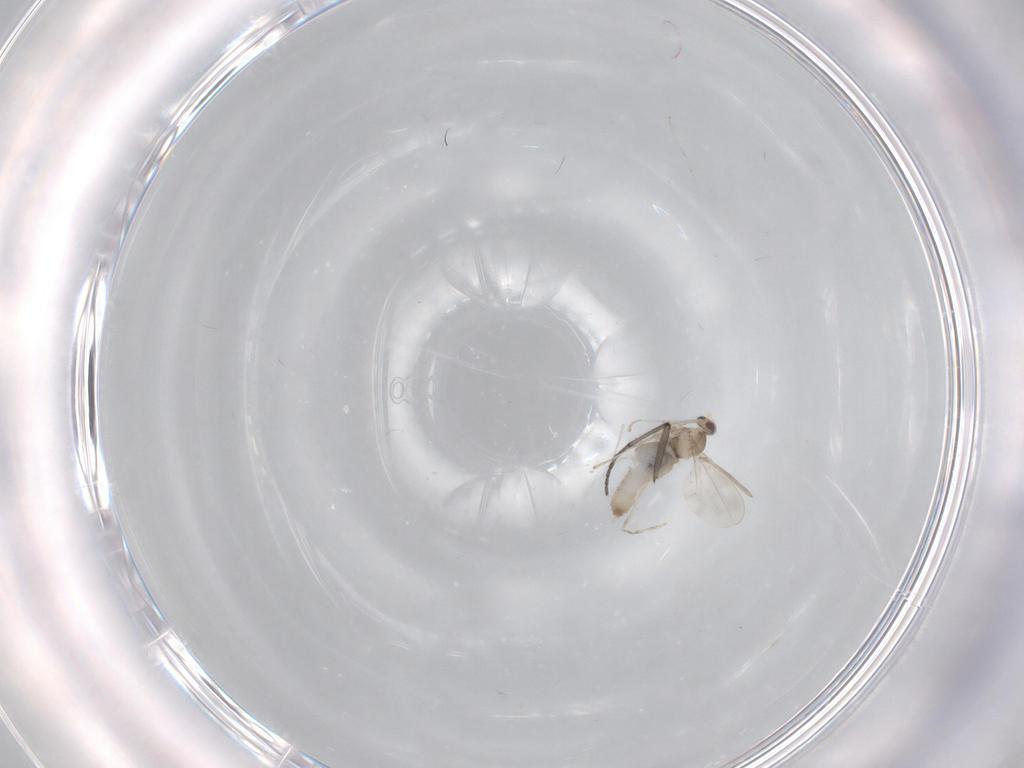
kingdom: Animalia
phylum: Arthropoda
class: Insecta
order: Diptera
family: Cecidomyiidae
